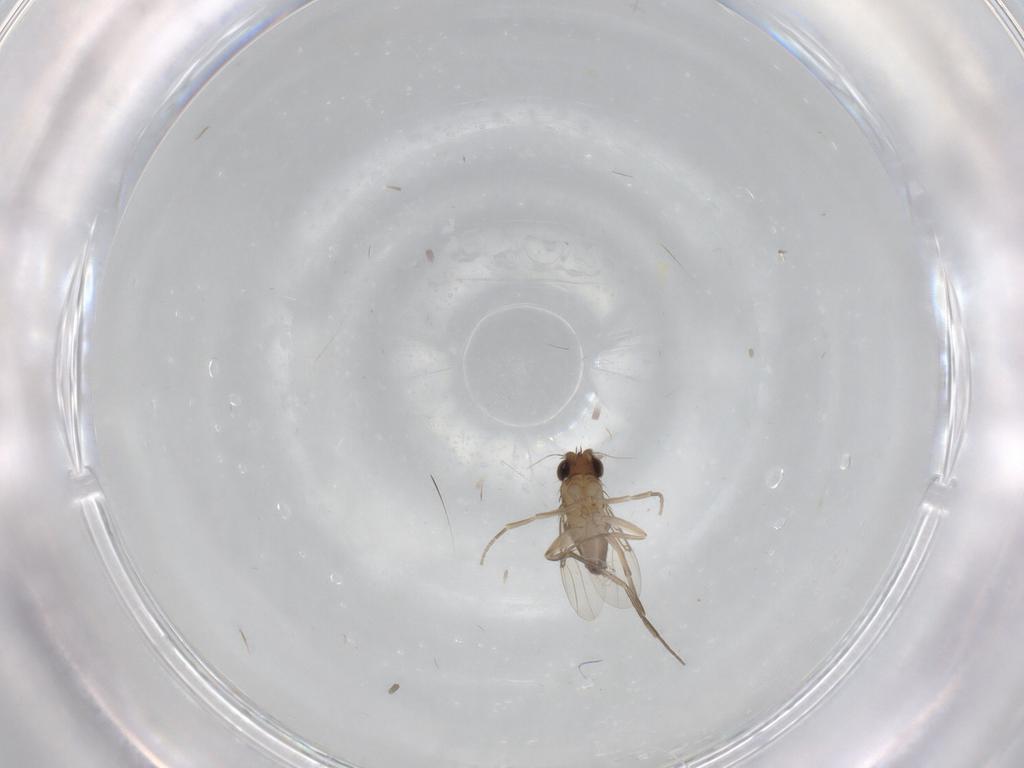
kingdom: Animalia
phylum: Arthropoda
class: Insecta
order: Diptera
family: Phoridae
